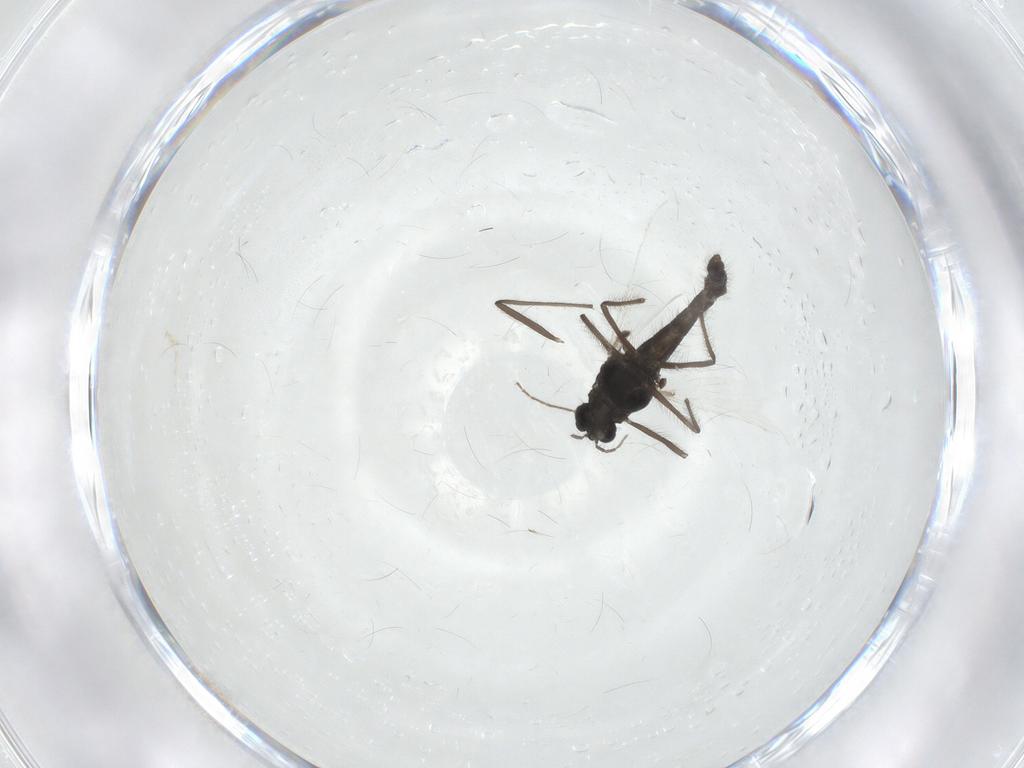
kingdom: Animalia
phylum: Arthropoda
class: Insecta
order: Diptera
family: Chironomidae
